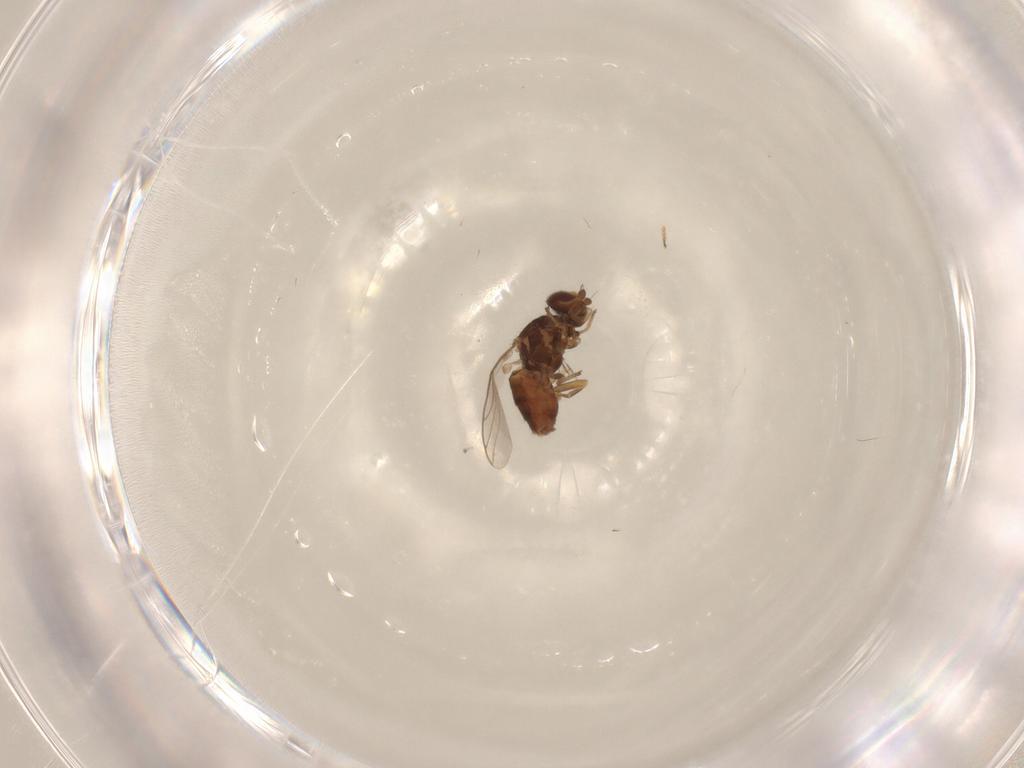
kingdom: Animalia
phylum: Arthropoda
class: Insecta
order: Diptera
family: Chloropidae
